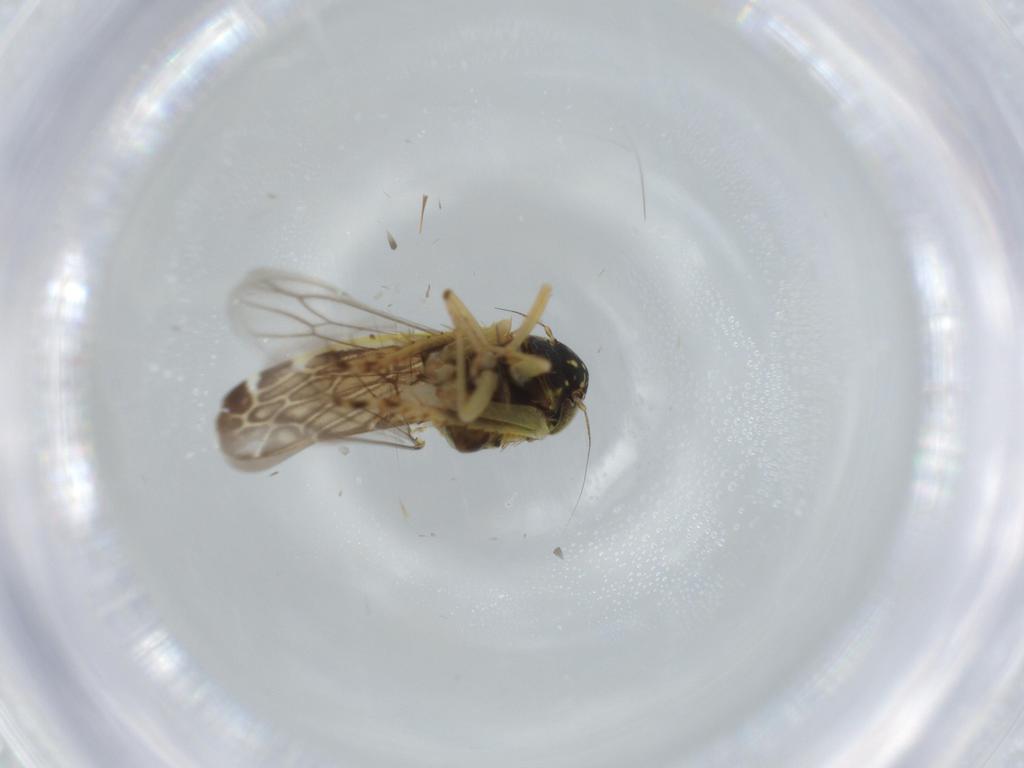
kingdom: Animalia
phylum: Arthropoda
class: Insecta
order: Hemiptera
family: Cicadellidae
